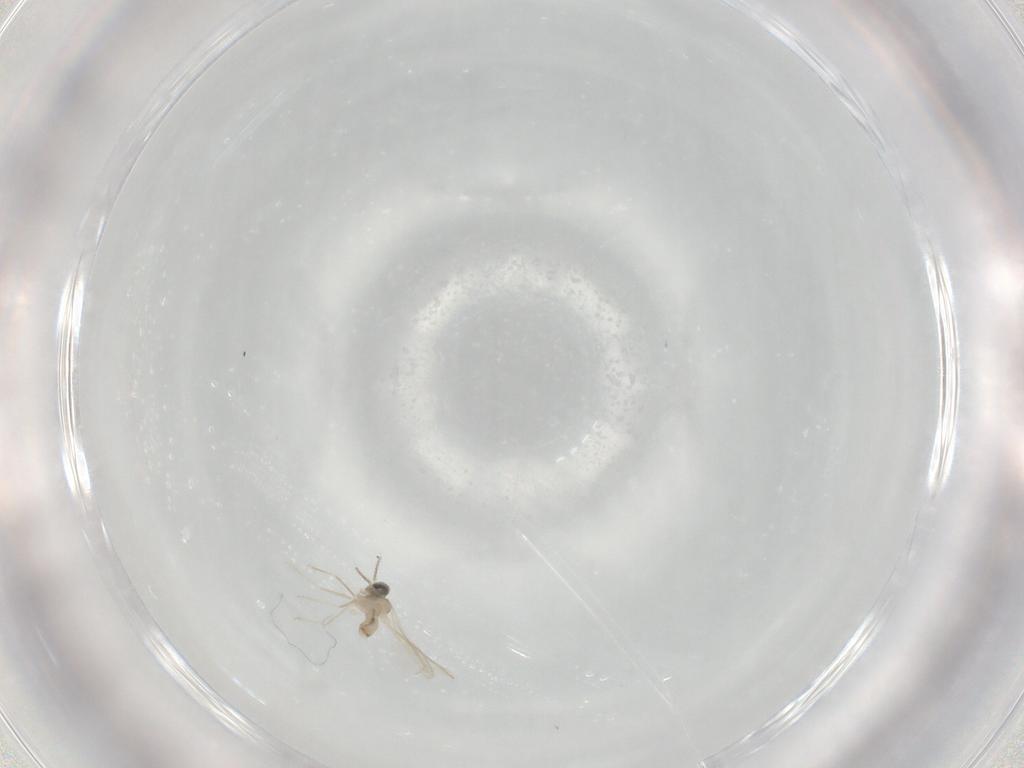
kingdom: Animalia
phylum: Arthropoda
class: Insecta
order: Diptera
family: Cecidomyiidae
